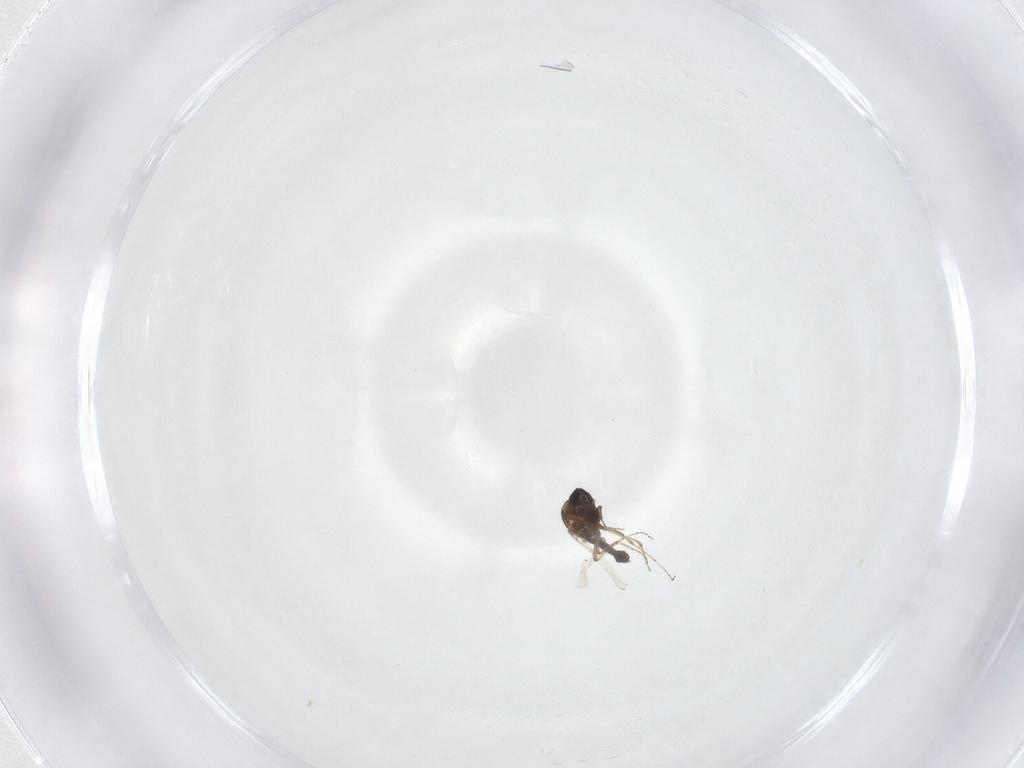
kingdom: Animalia
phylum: Arthropoda
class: Insecta
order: Diptera
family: Ceratopogonidae
